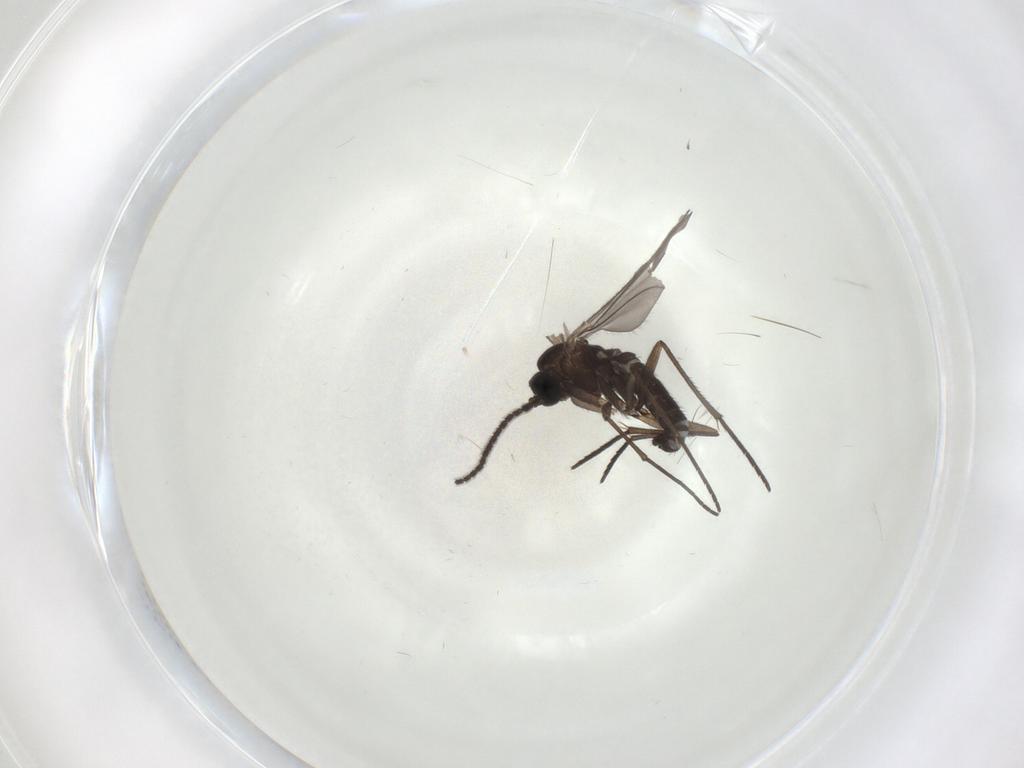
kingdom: Animalia
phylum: Arthropoda
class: Insecta
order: Diptera
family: Sciaridae
